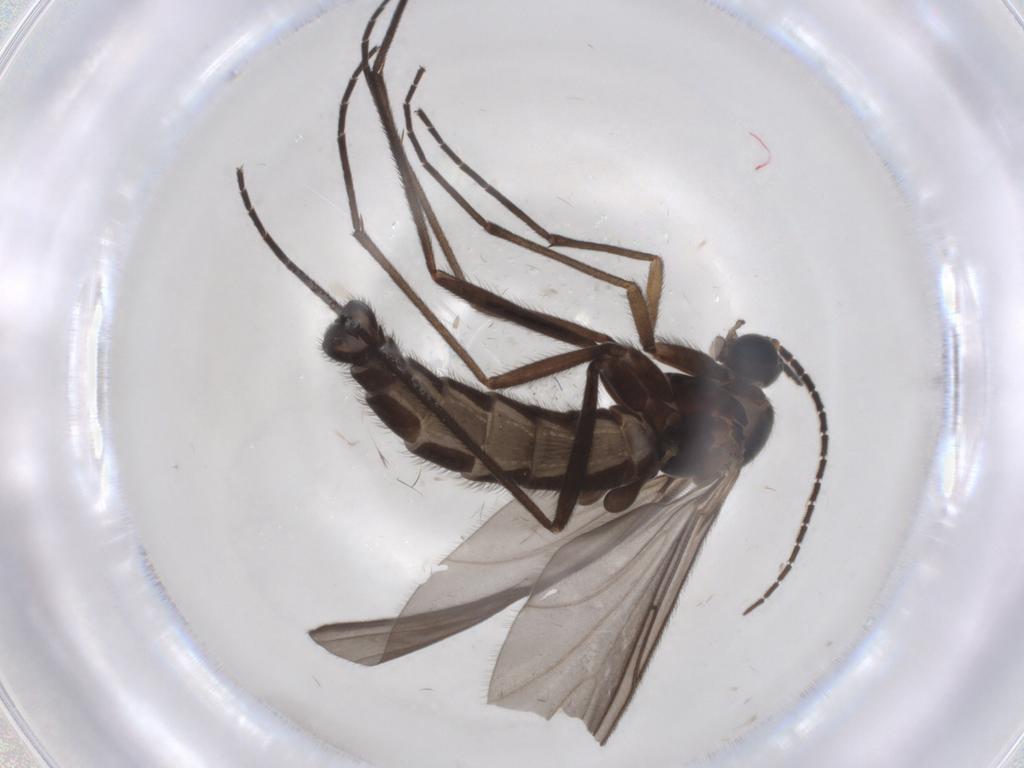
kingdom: Animalia
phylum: Arthropoda
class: Insecta
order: Diptera
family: Sciaridae
